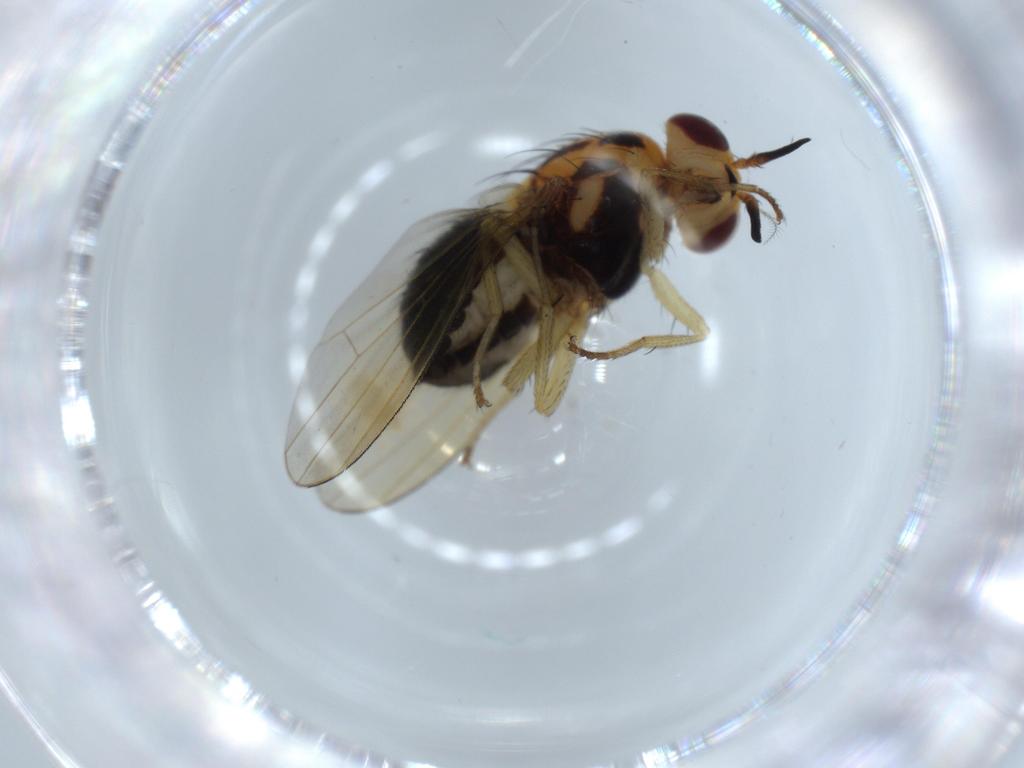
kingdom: Animalia
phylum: Arthropoda
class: Insecta
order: Diptera
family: Lauxaniidae
